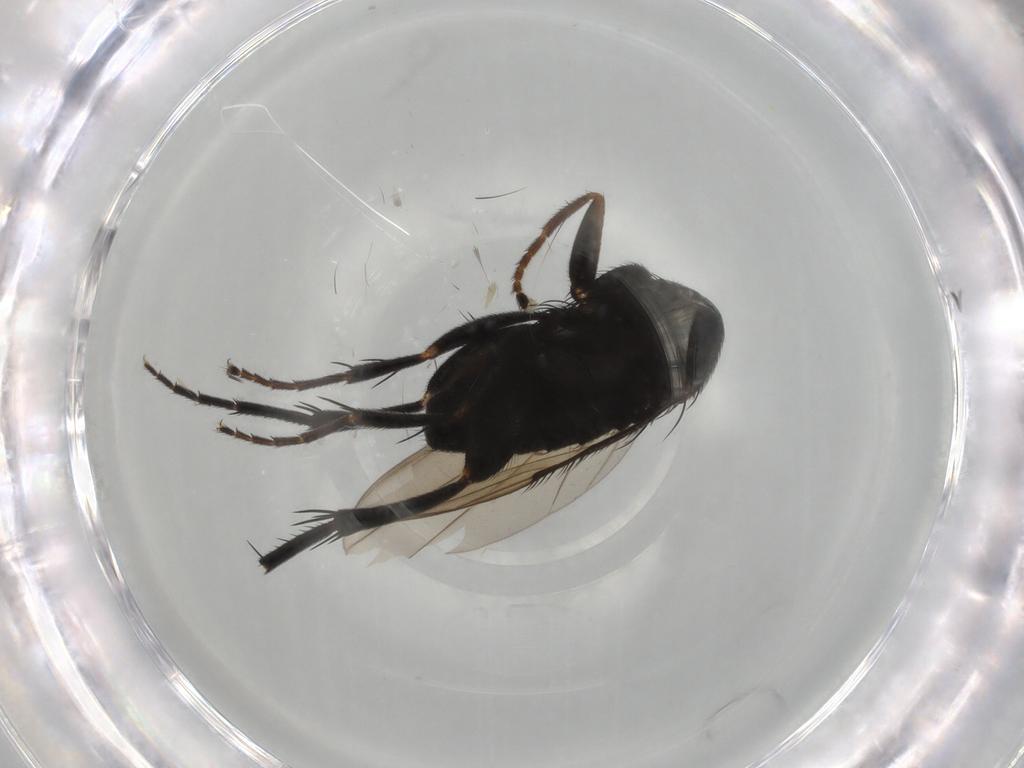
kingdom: Animalia
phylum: Arthropoda
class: Insecta
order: Diptera
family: Phoridae
